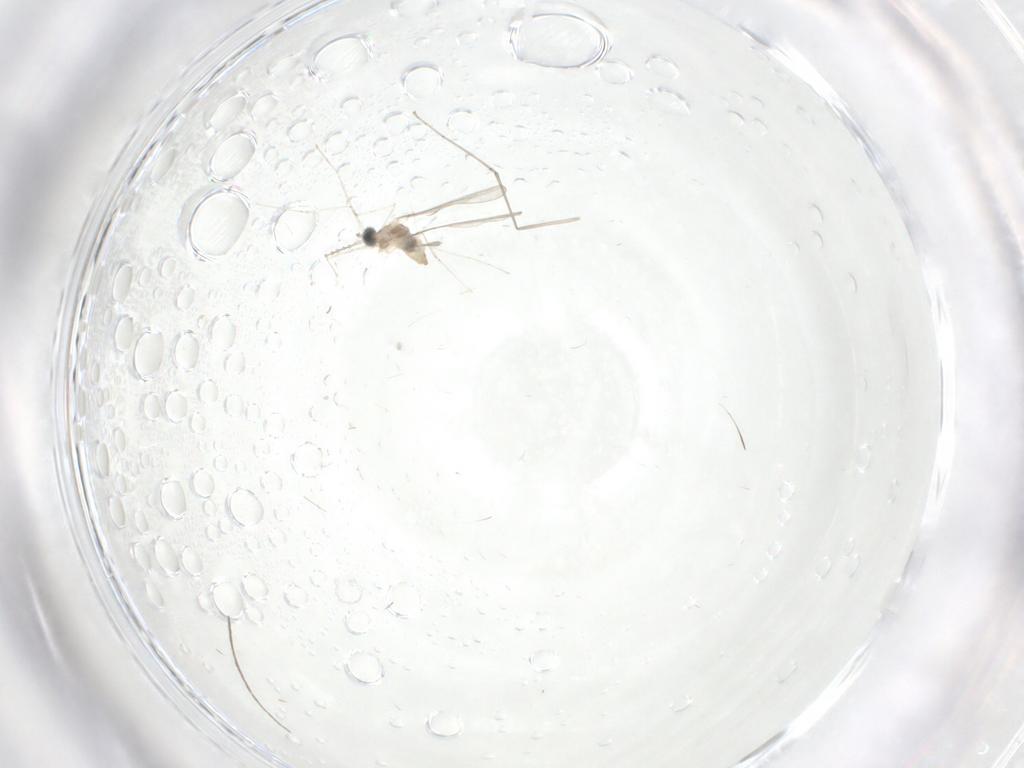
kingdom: Animalia
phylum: Arthropoda
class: Insecta
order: Diptera
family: Cecidomyiidae
